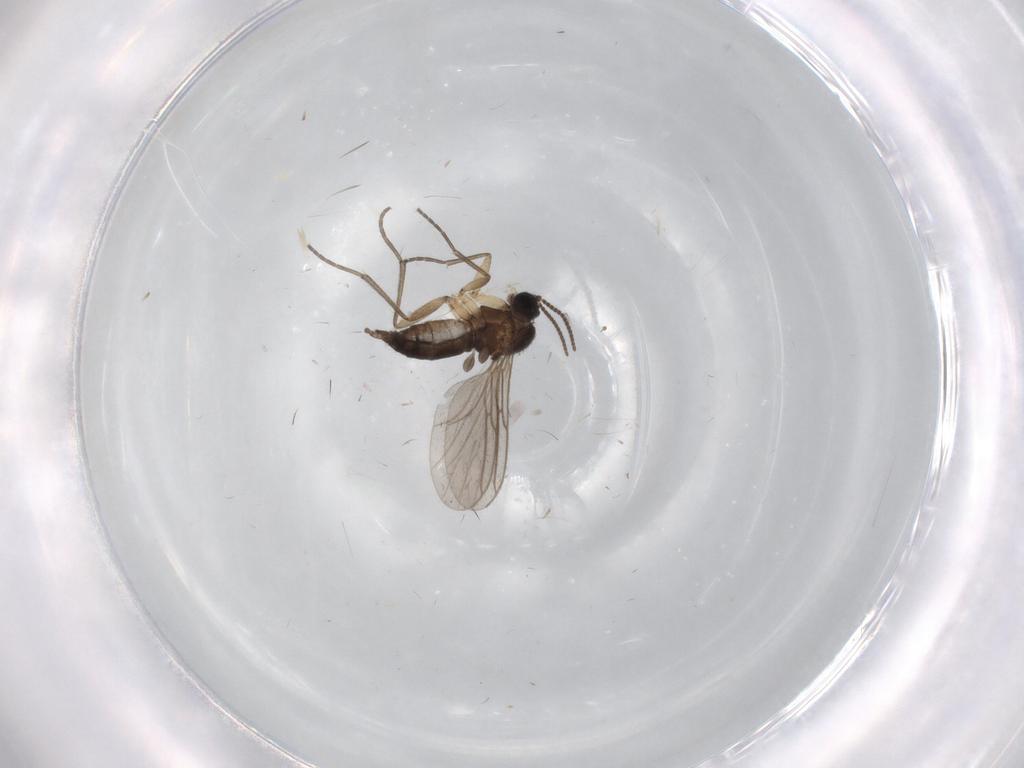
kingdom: Animalia
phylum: Arthropoda
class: Insecta
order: Diptera
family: Sciaridae
